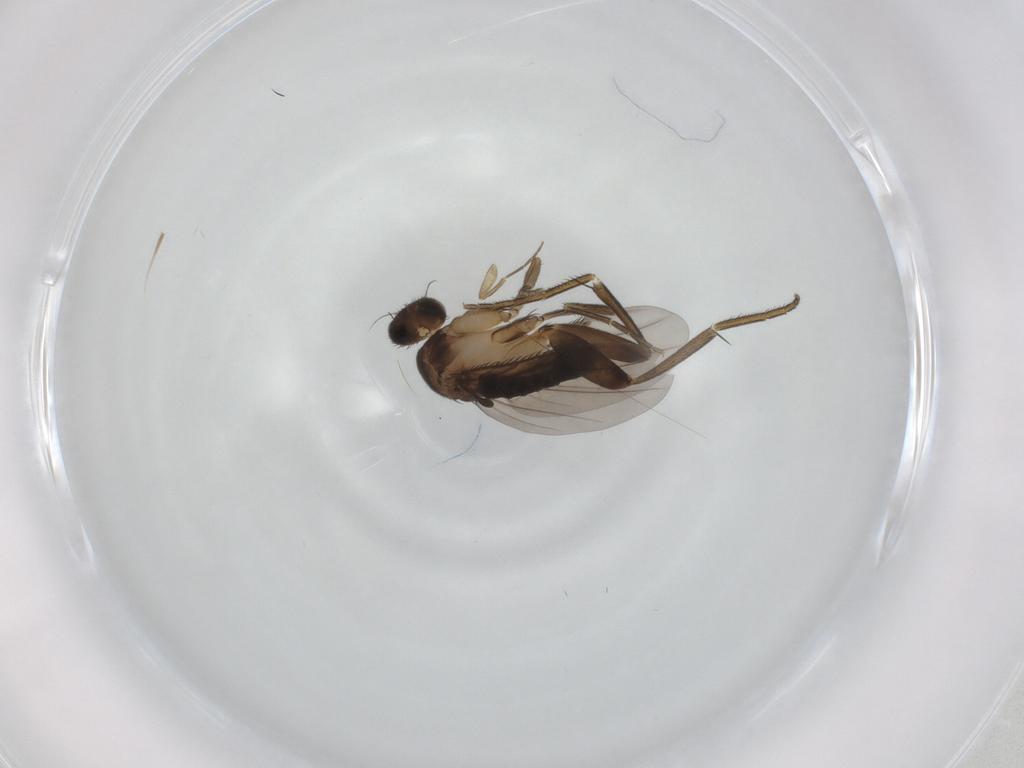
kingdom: Animalia
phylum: Arthropoda
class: Insecta
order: Diptera
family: Phoridae
